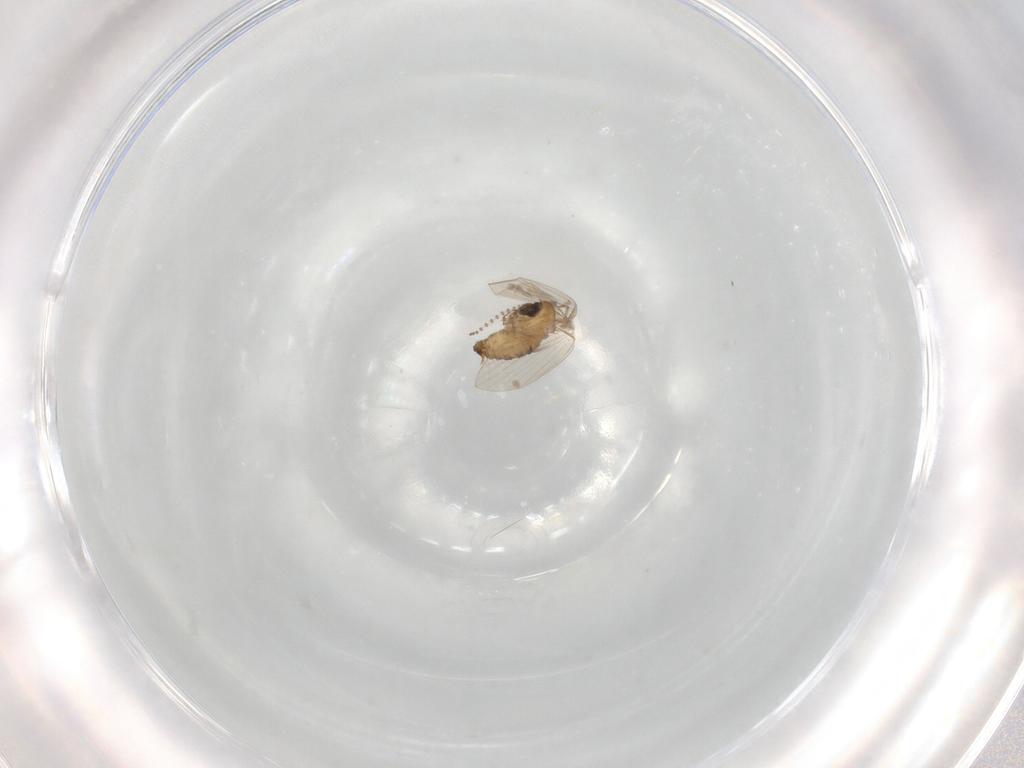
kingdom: Animalia
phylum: Arthropoda
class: Insecta
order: Diptera
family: Psychodidae
